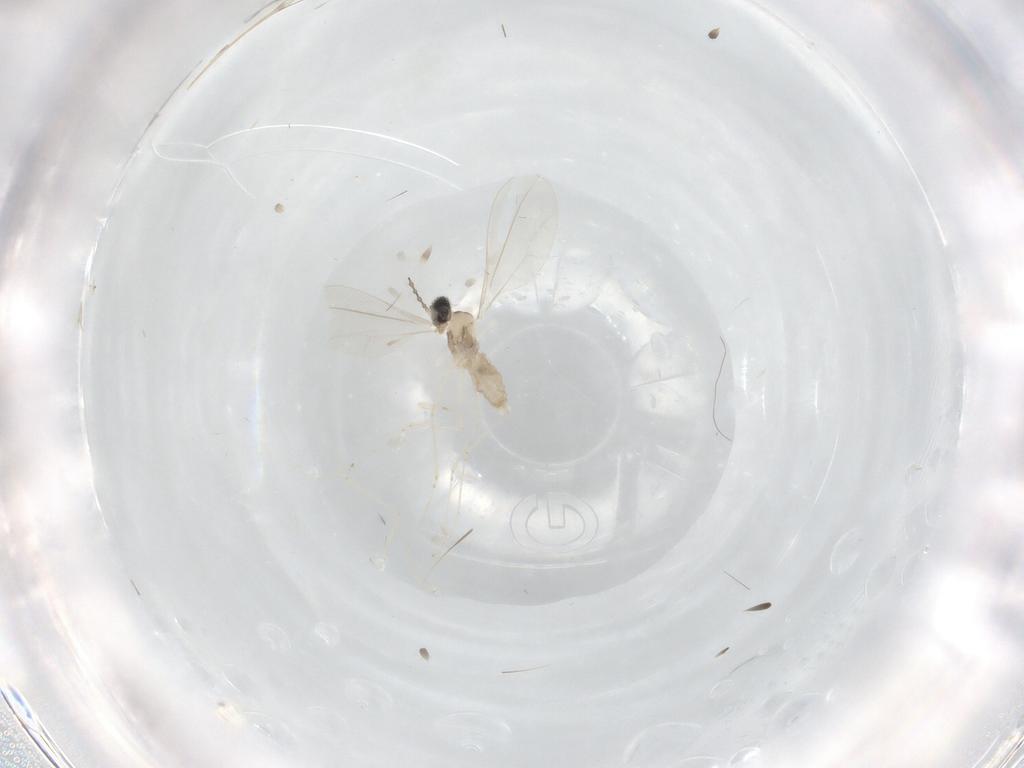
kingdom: Animalia
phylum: Arthropoda
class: Insecta
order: Diptera
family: Cecidomyiidae
